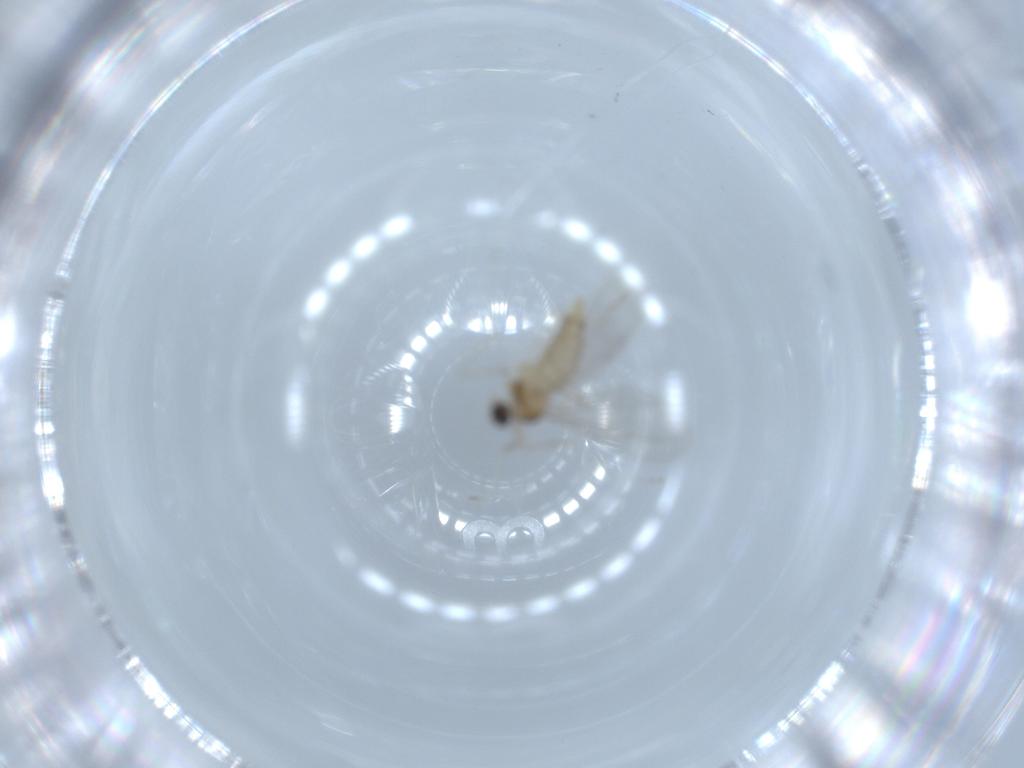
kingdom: Animalia
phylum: Arthropoda
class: Insecta
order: Diptera
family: Cecidomyiidae
